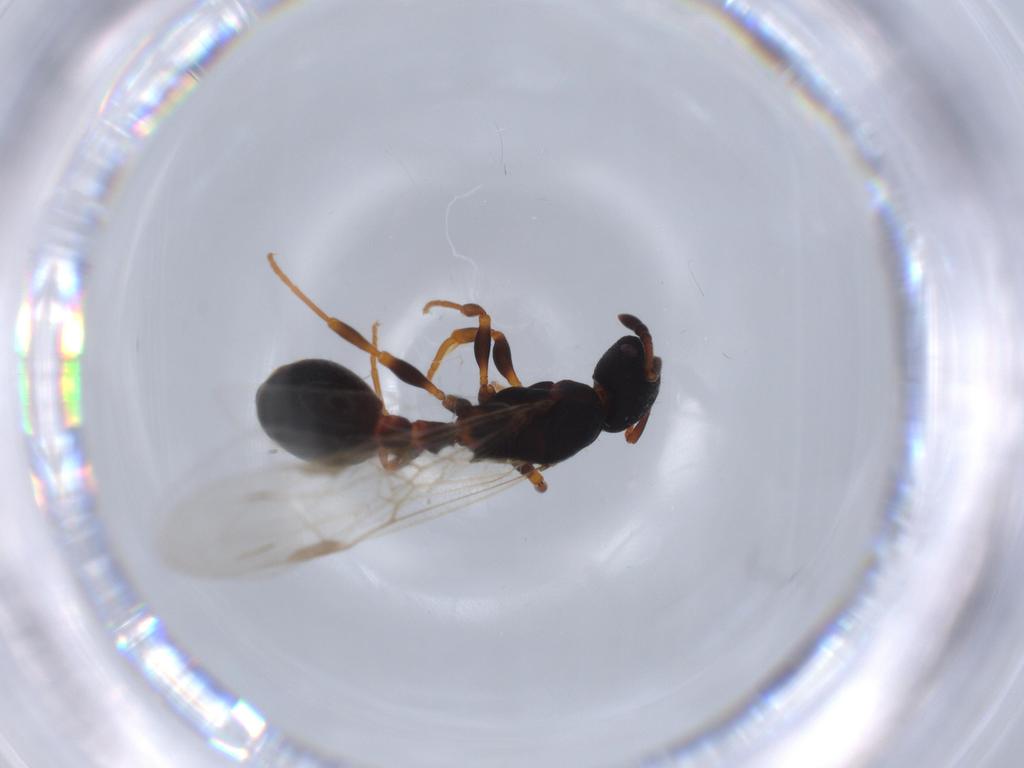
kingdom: Animalia
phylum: Arthropoda
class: Insecta
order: Hymenoptera
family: Formicidae
